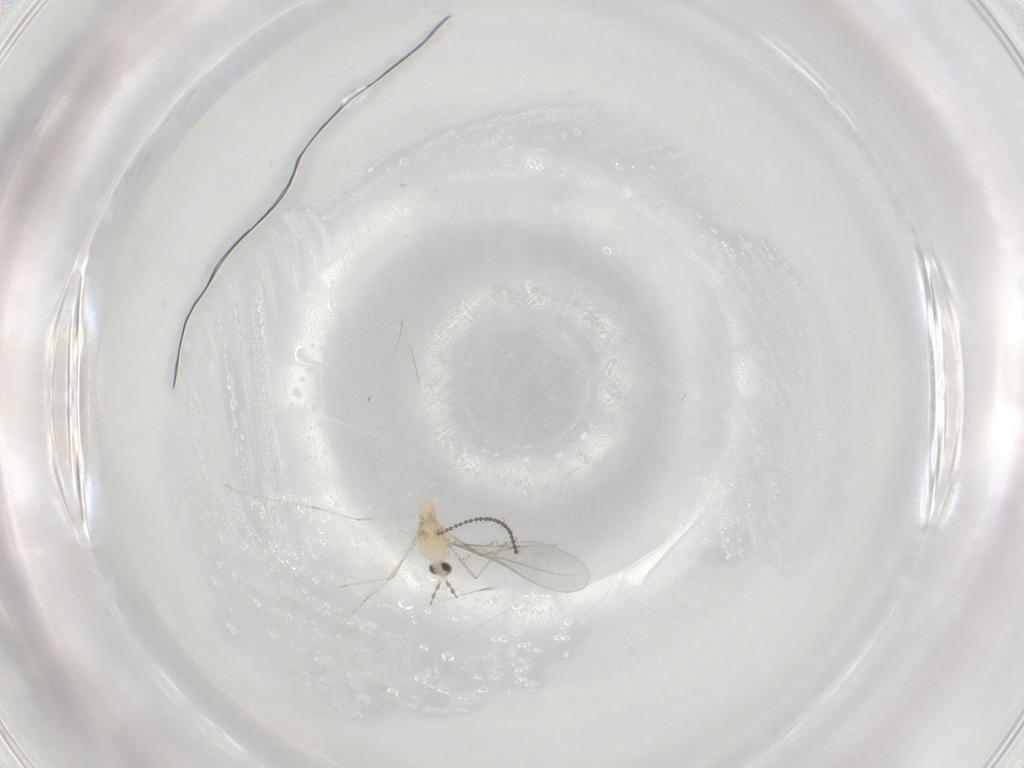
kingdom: Animalia
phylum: Arthropoda
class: Insecta
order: Diptera
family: Cecidomyiidae
